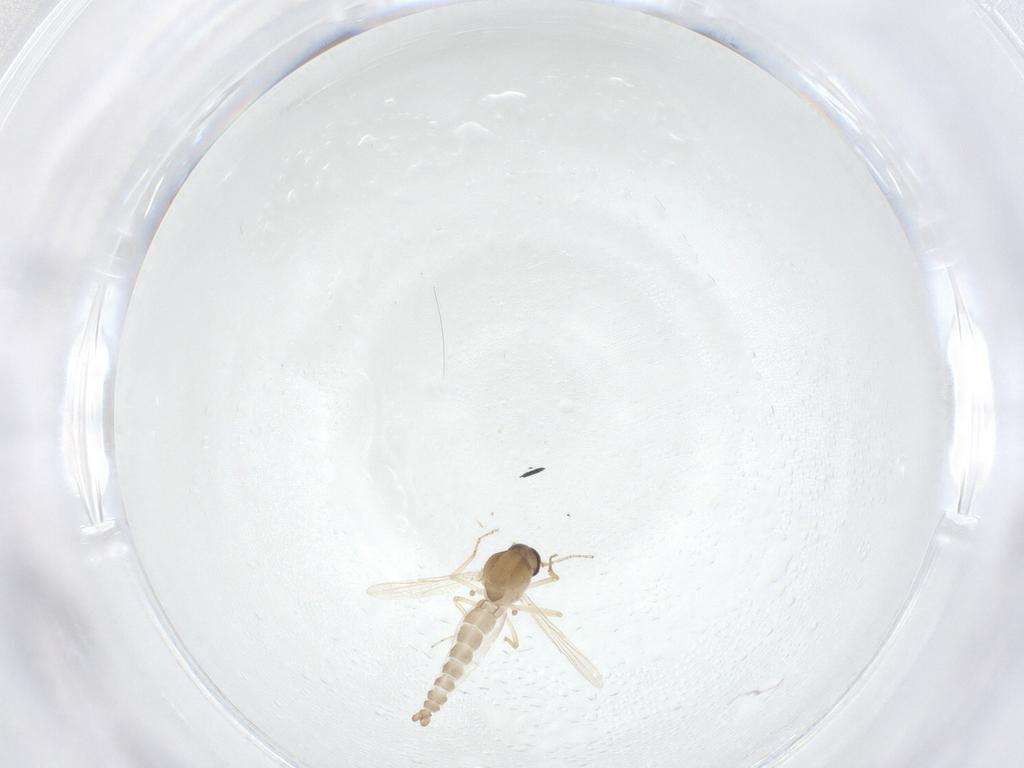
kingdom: Animalia
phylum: Arthropoda
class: Insecta
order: Diptera
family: Ceratopogonidae
